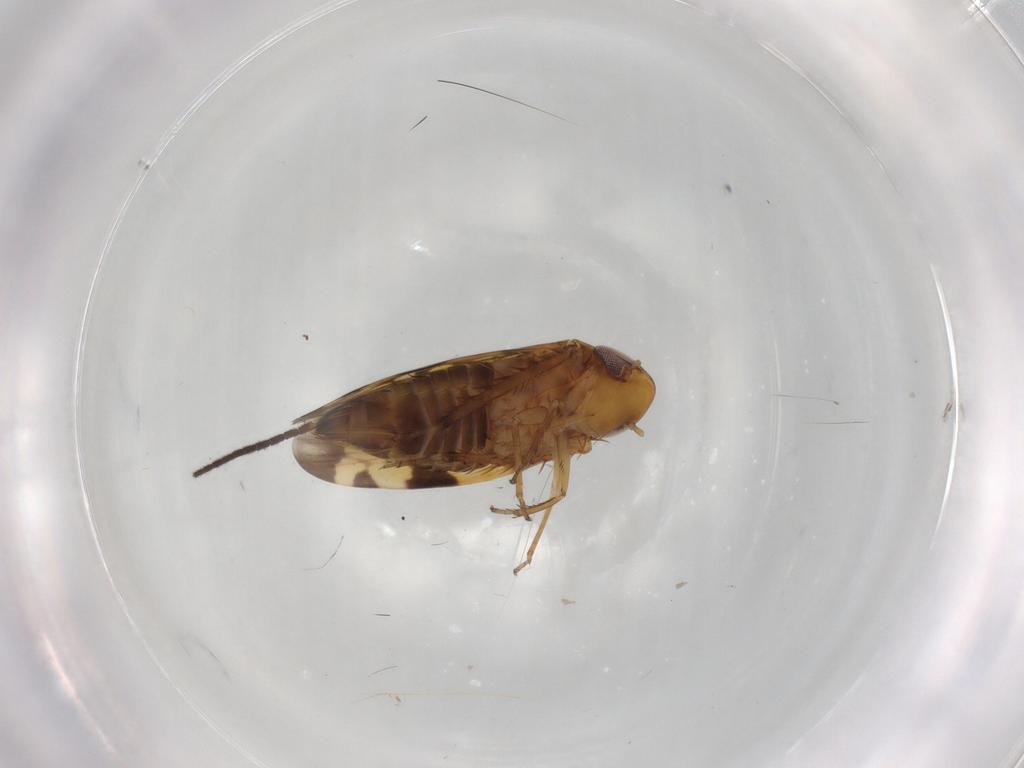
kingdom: Animalia
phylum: Arthropoda
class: Insecta
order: Hemiptera
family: Cicadellidae
